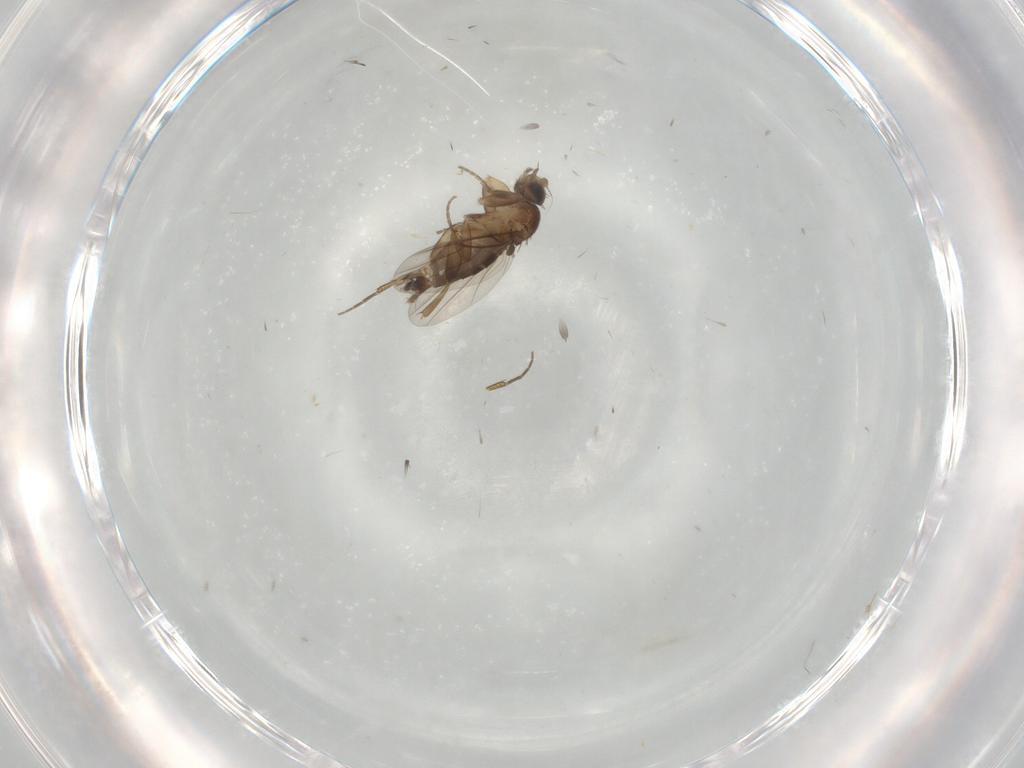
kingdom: Animalia
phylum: Arthropoda
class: Insecta
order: Diptera
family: Phoridae
